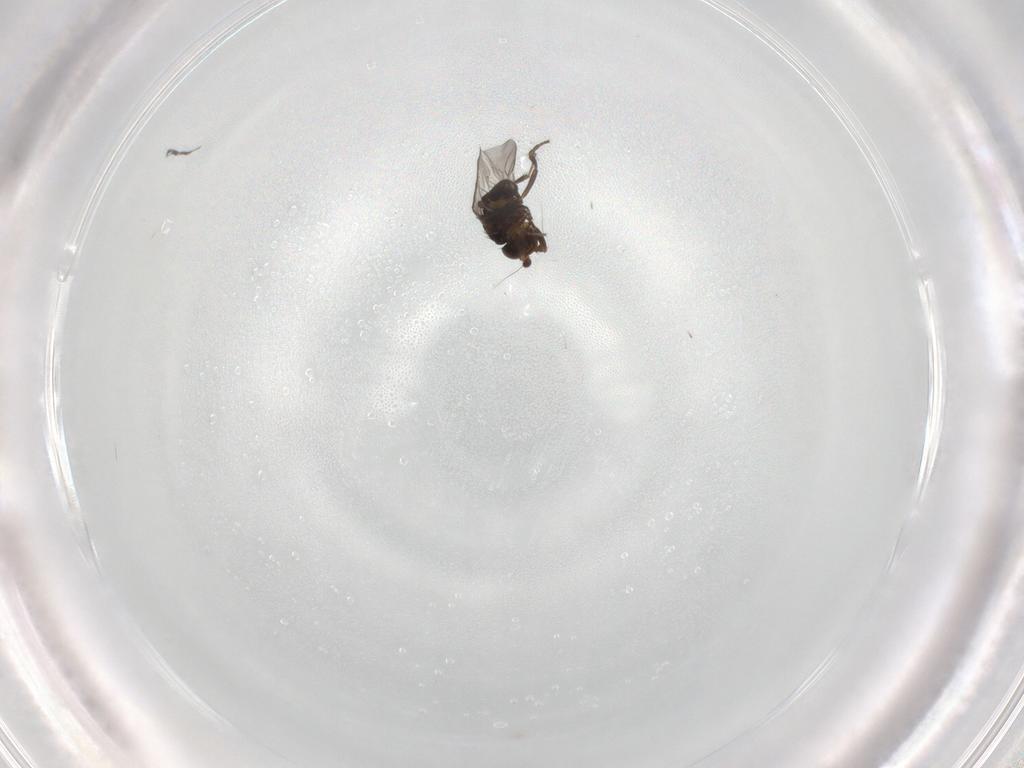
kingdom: Animalia
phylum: Arthropoda
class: Insecta
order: Diptera
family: Sphaeroceridae
